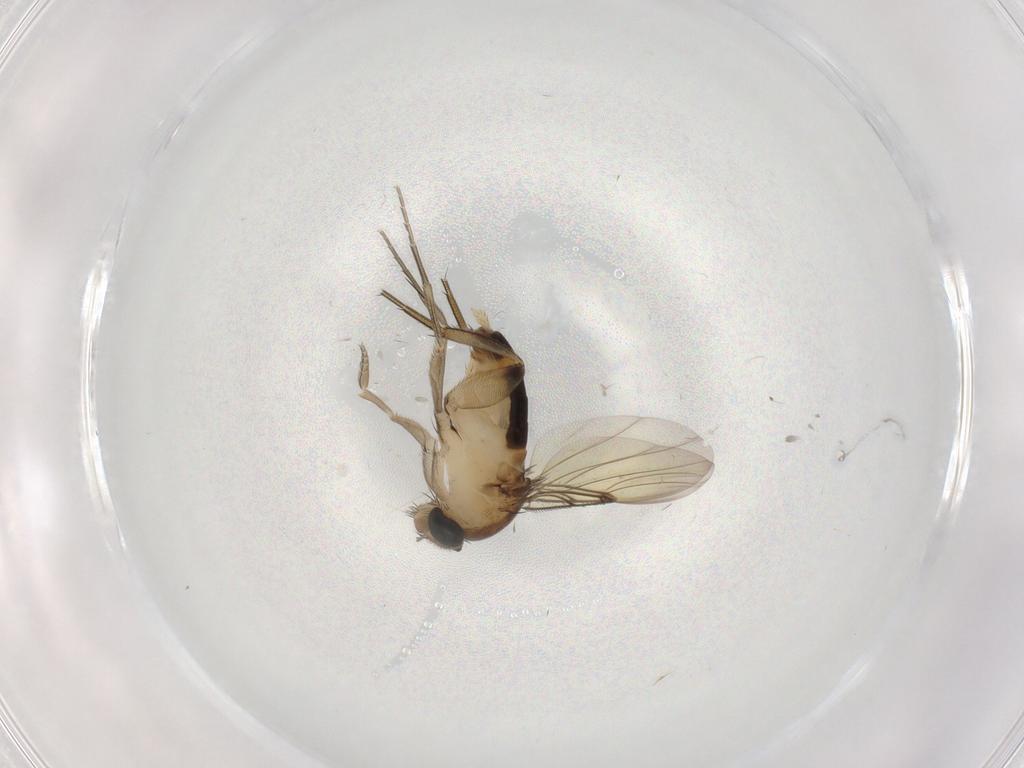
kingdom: Animalia
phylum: Arthropoda
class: Insecta
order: Diptera
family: Phoridae
